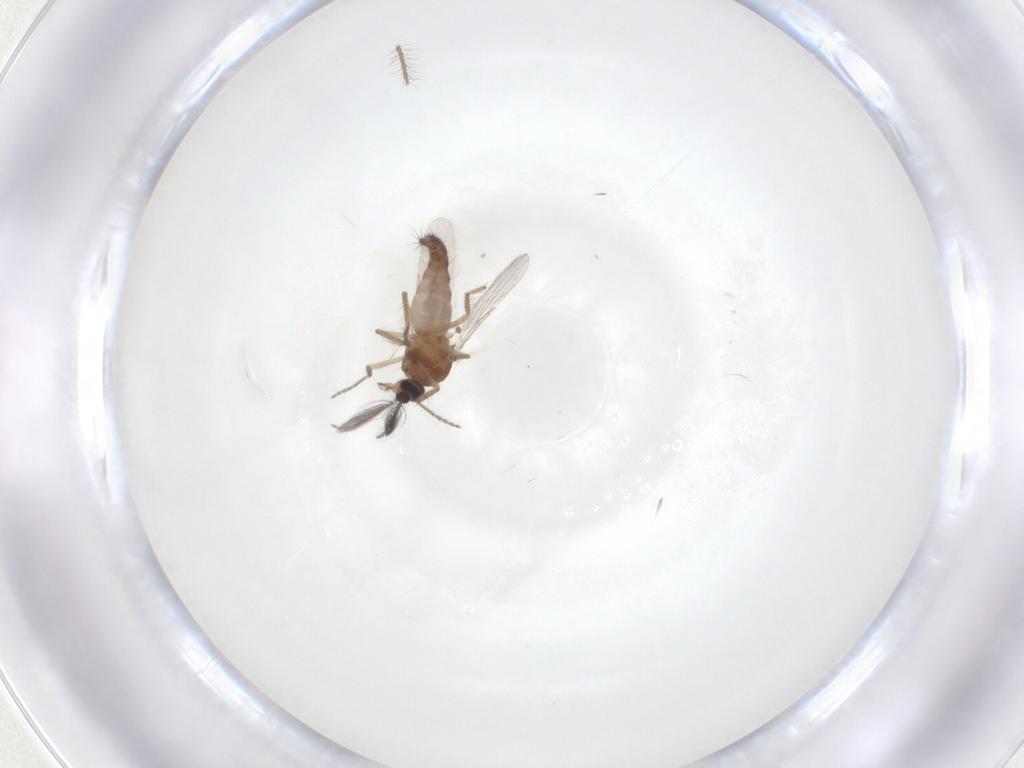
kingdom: Animalia
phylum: Arthropoda
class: Insecta
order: Diptera
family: Ceratopogonidae
